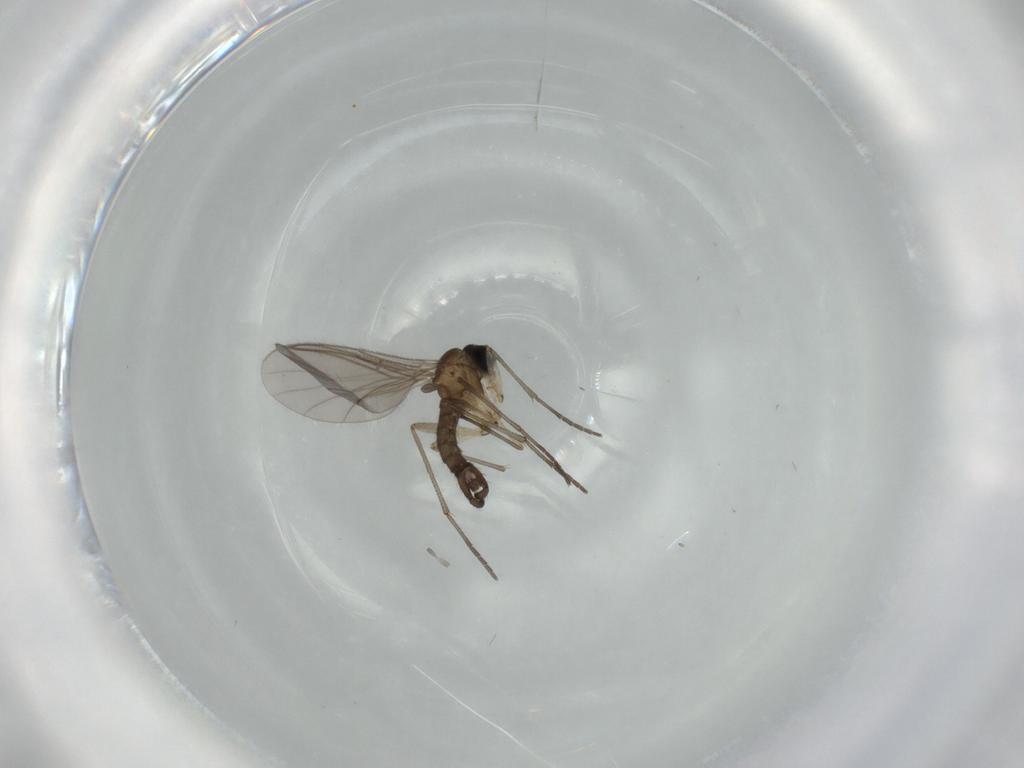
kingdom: Animalia
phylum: Arthropoda
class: Insecta
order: Diptera
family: Sciaridae
